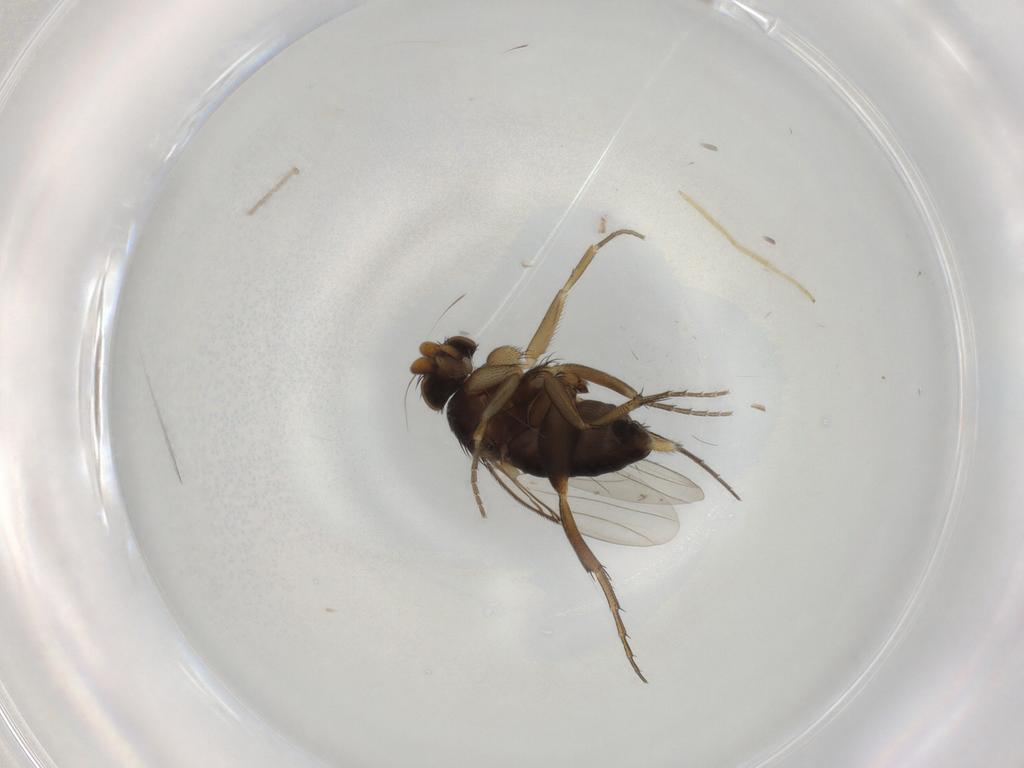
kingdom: Animalia
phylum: Arthropoda
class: Insecta
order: Diptera
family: Phoridae
